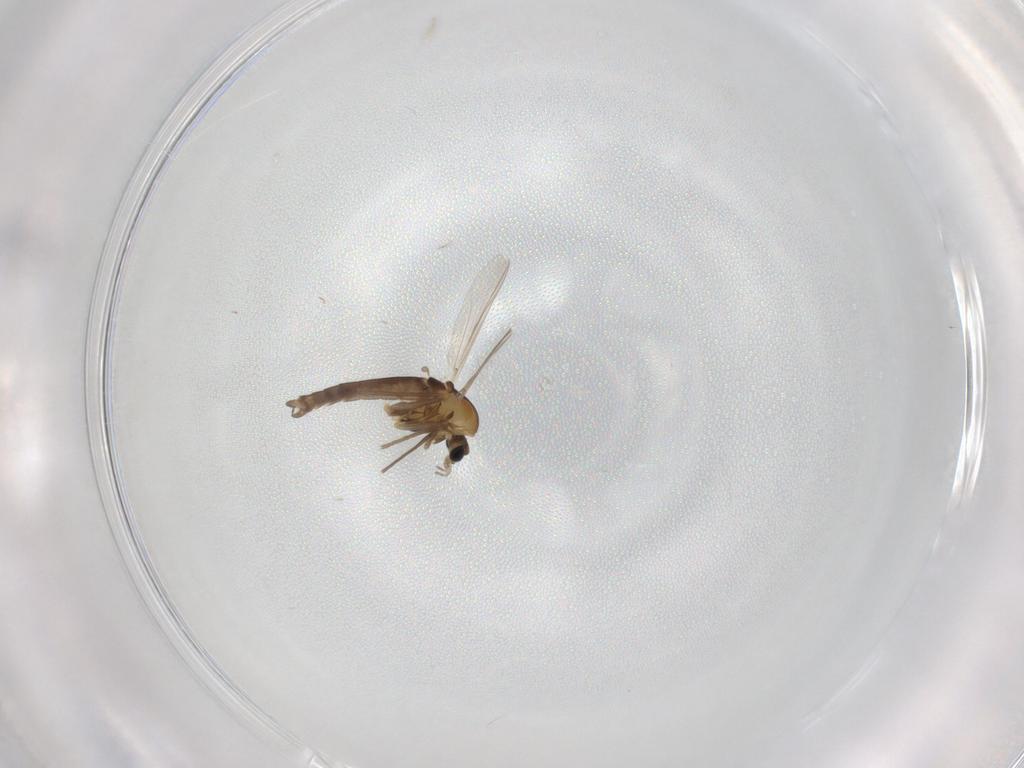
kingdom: Animalia
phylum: Arthropoda
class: Insecta
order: Diptera
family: Chironomidae
